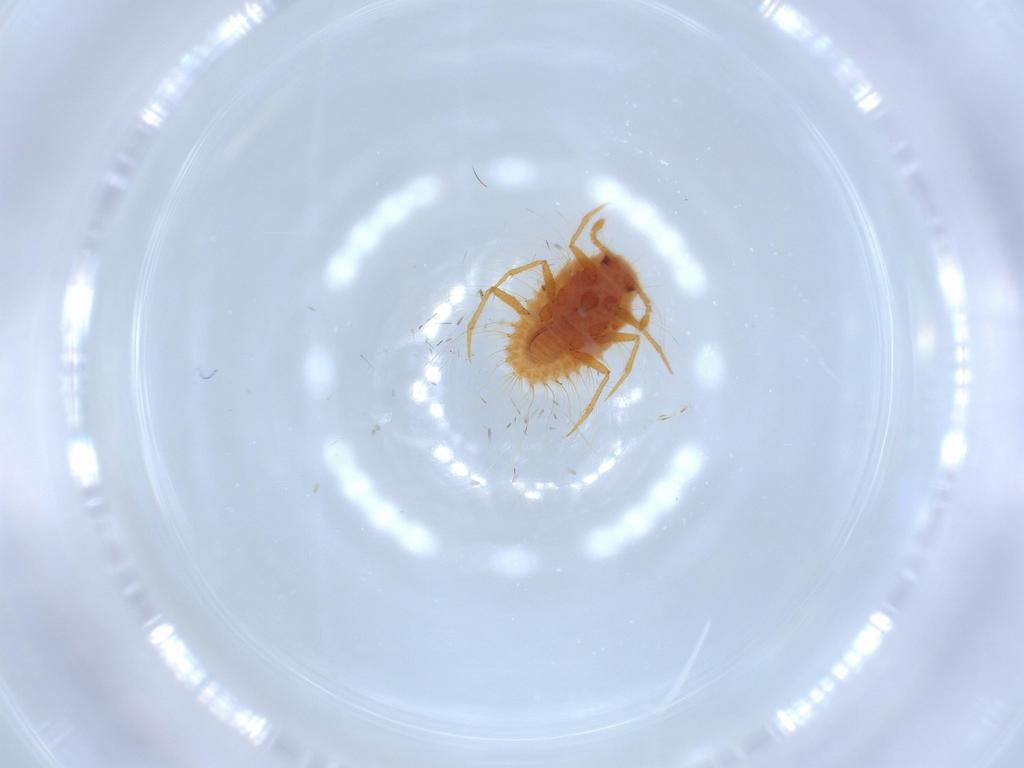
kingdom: Animalia
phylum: Arthropoda
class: Insecta
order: Hemiptera
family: Coccoidea_incertae_sedis
